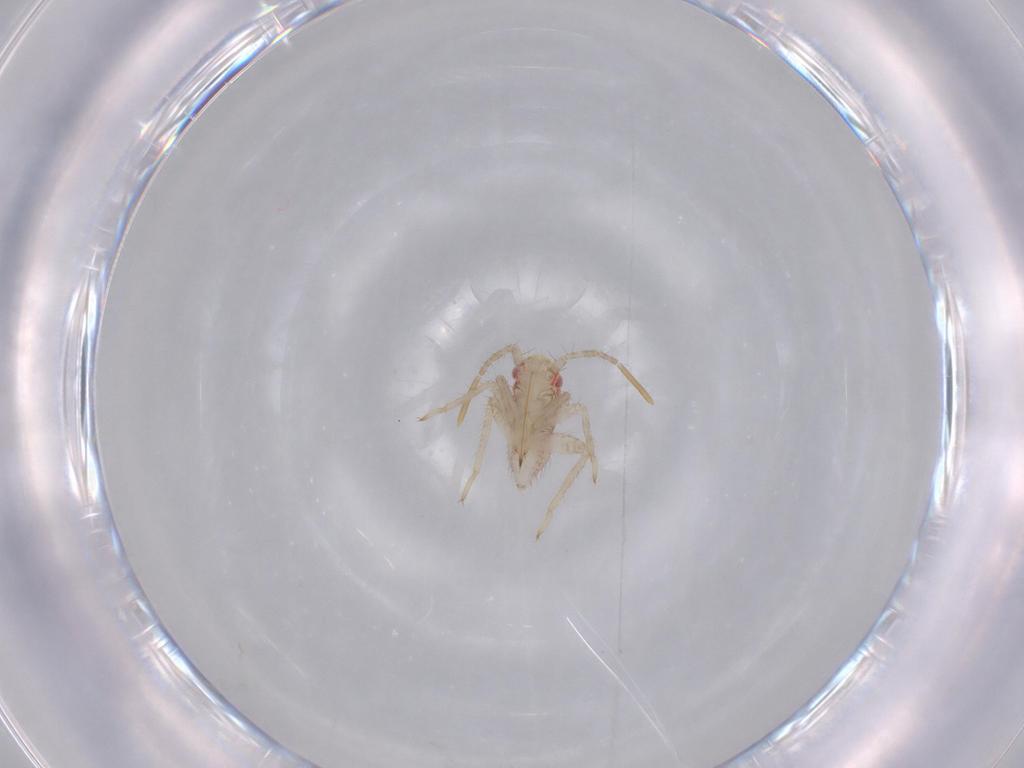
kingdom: Animalia
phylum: Arthropoda
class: Insecta
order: Hemiptera
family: Miridae
